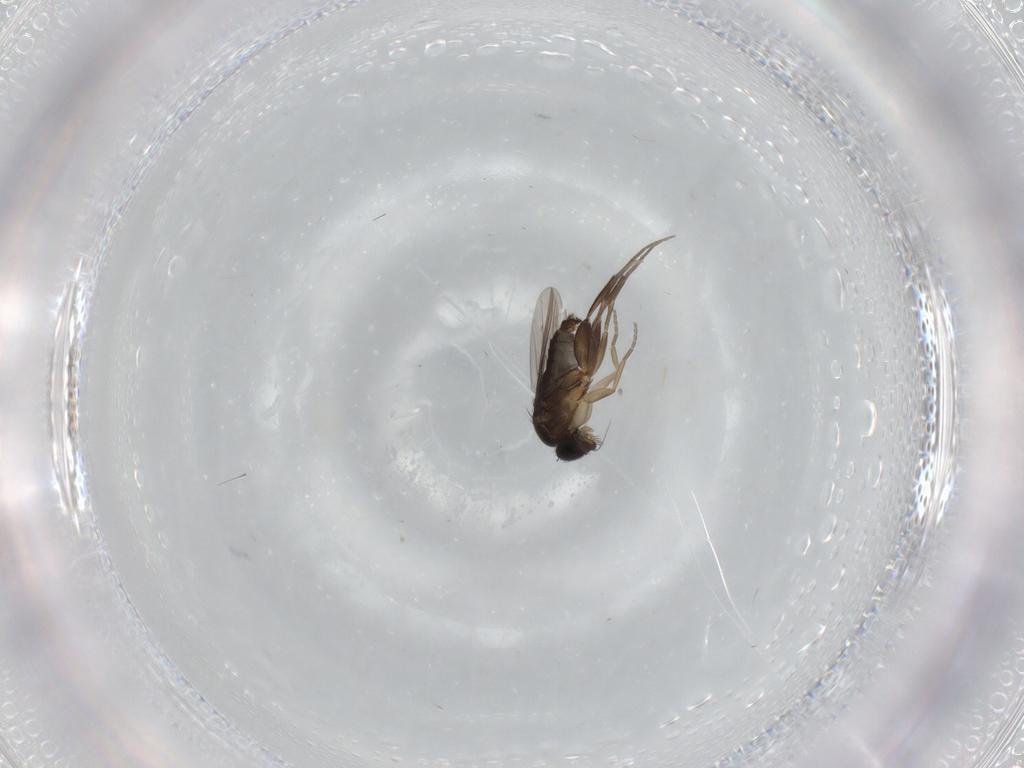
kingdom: Animalia
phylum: Arthropoda
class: Insecta
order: Diptera
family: Phoridae
